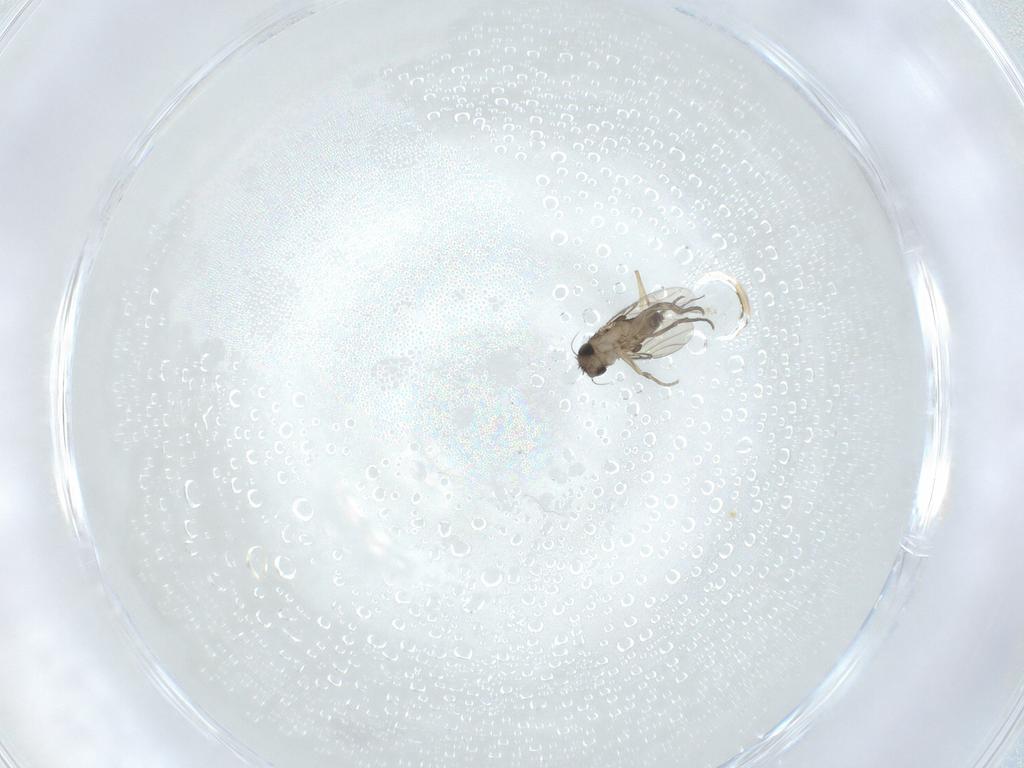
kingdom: Animalia
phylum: Arthropoda
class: Insecta
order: Diptera
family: Phoridae
